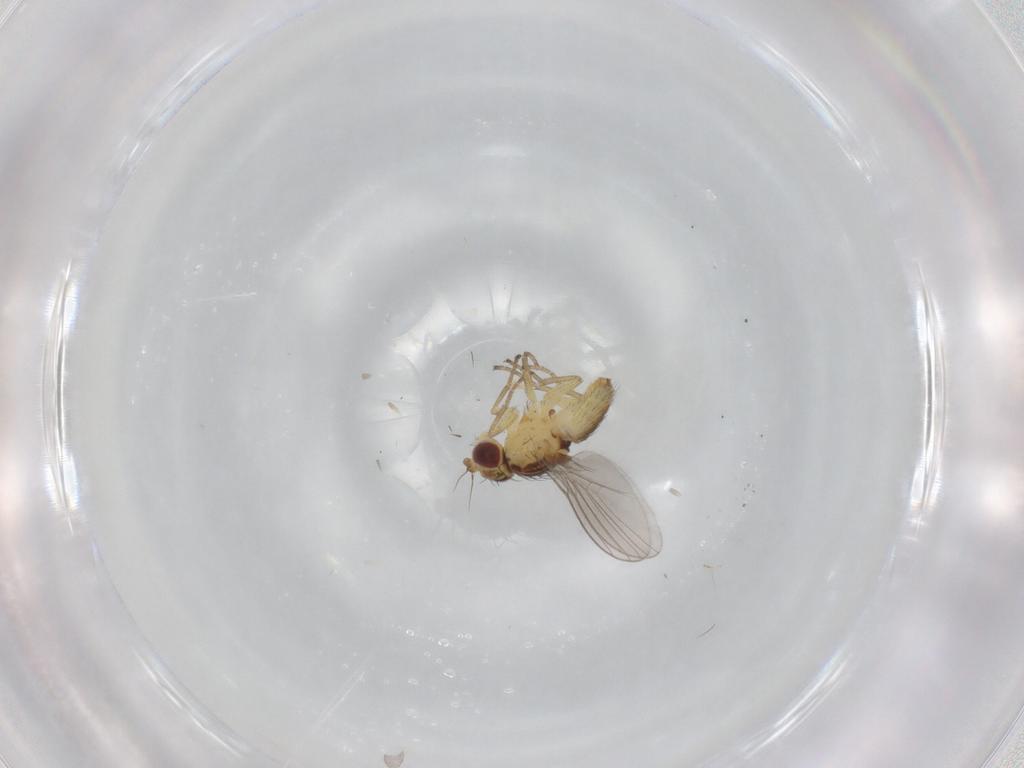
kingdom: Animalia
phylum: Arthropoda
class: Insecta
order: Diptera
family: Agromyzidae
